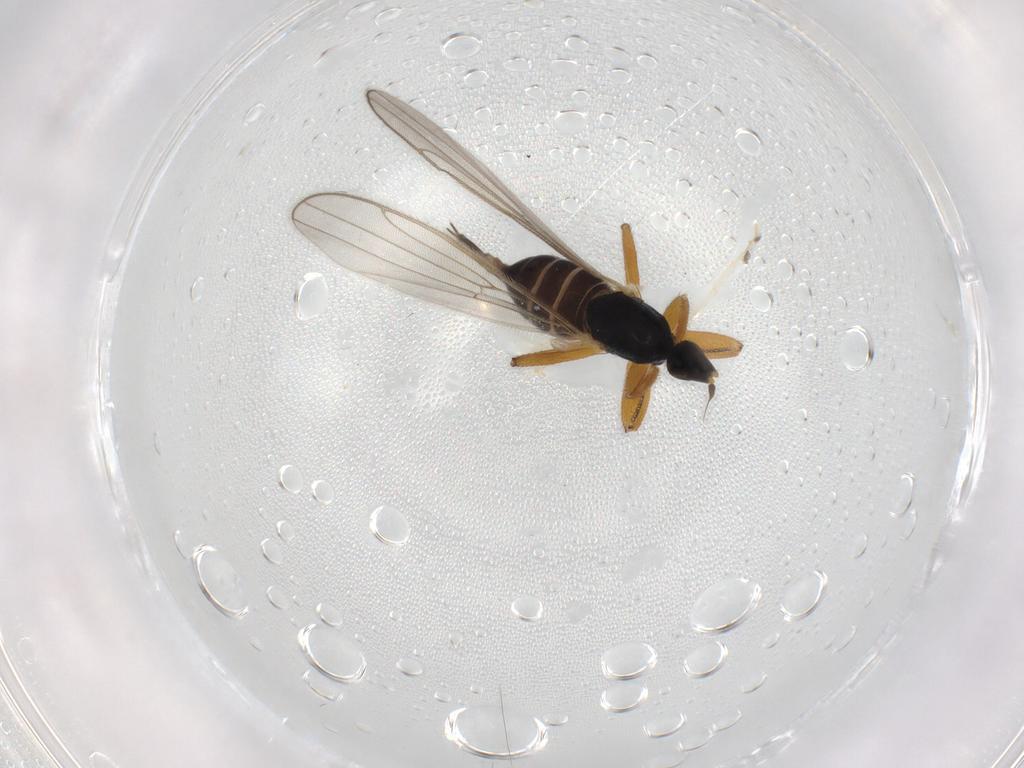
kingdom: Animalia
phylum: Arthropoda
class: Insecta
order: Diptera
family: Hybotidae
